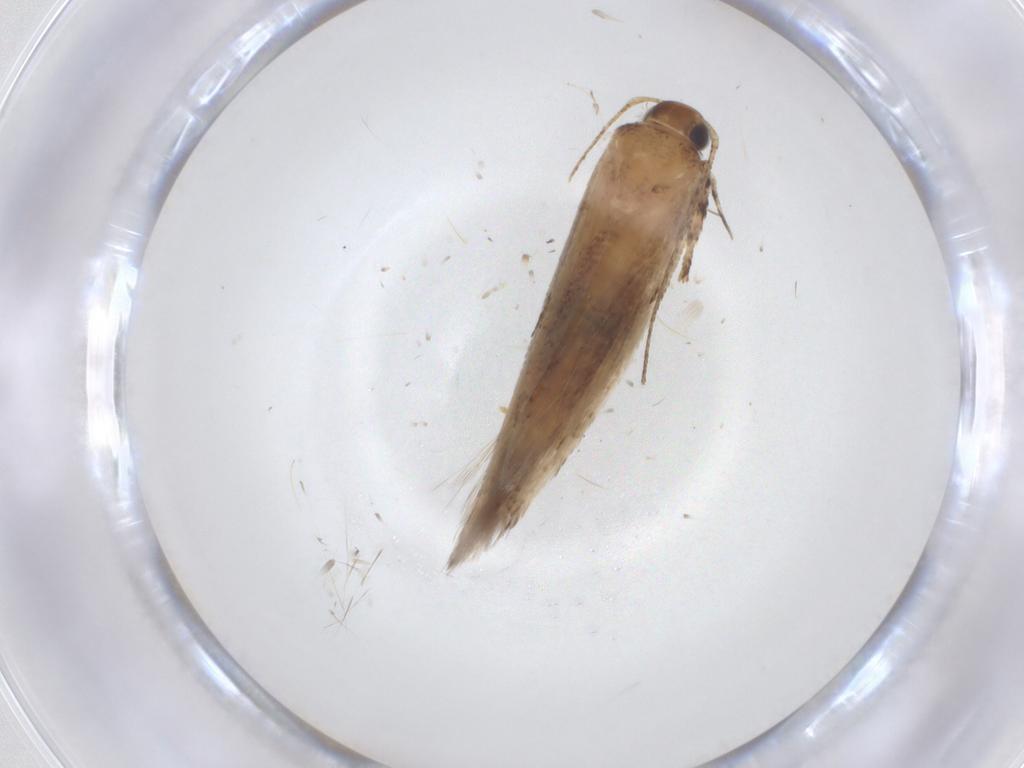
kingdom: Animalia
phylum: Arthropoda
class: Insecta
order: Lepidoptera
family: Gelechiidae
